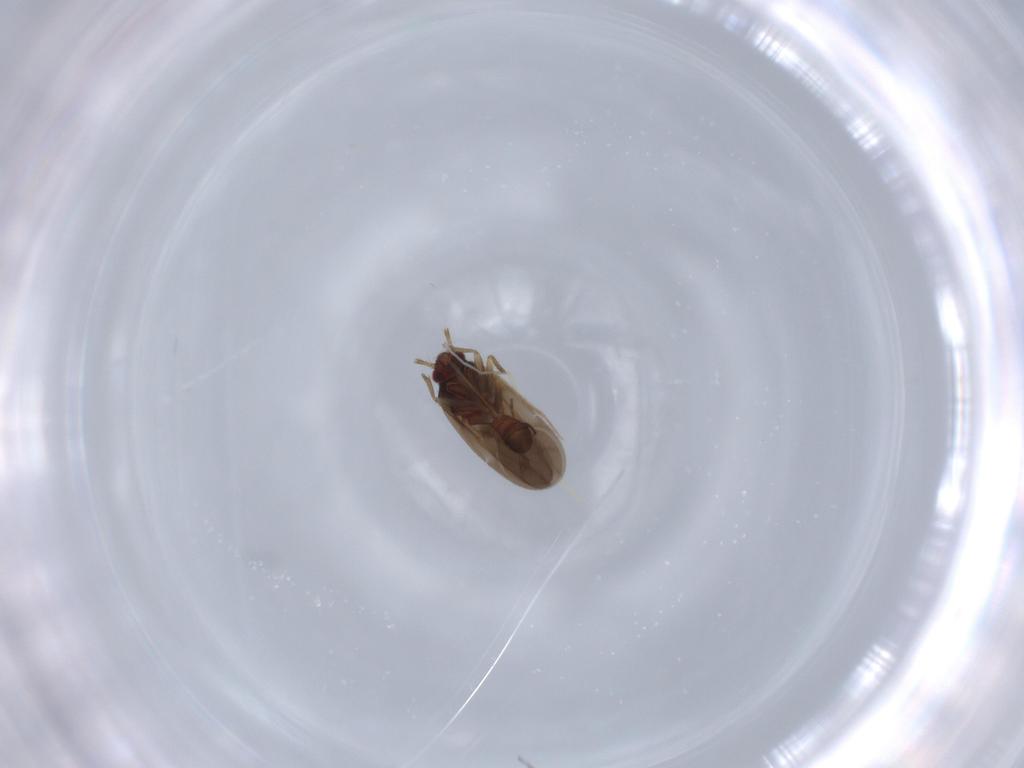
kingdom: Animalia
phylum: Arthropoda
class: Insecta
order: Hemiptera
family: Ceratocombidae
